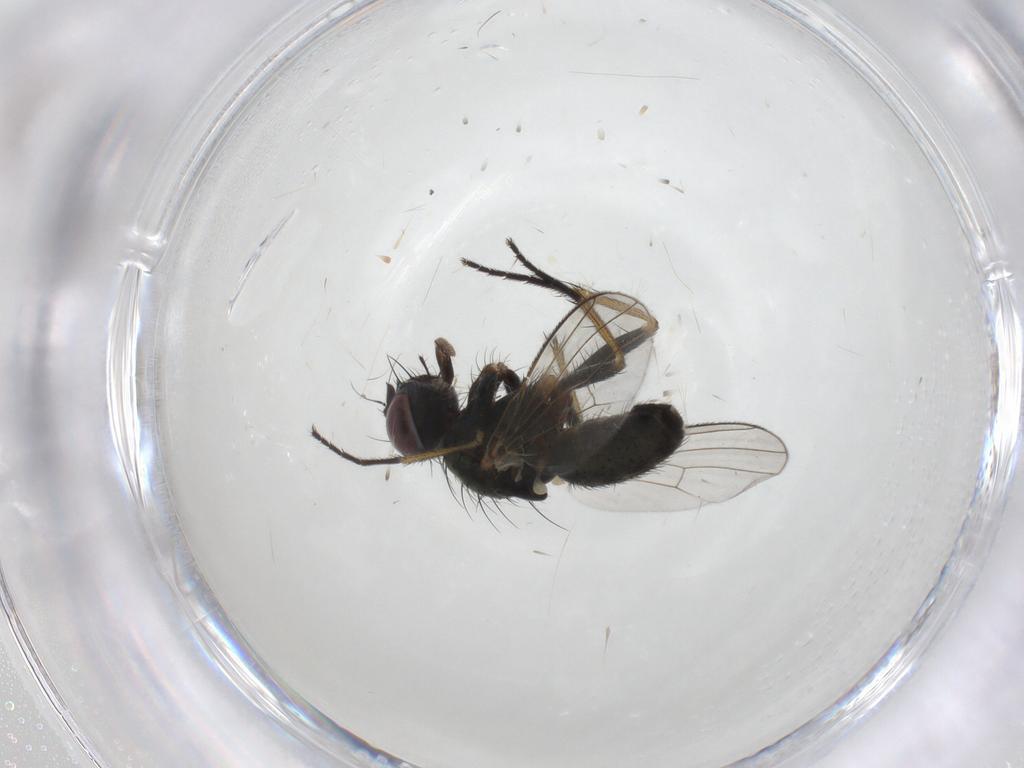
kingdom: Animalia
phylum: Arthropoda
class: Insecta
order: Diptera
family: Muscidae
